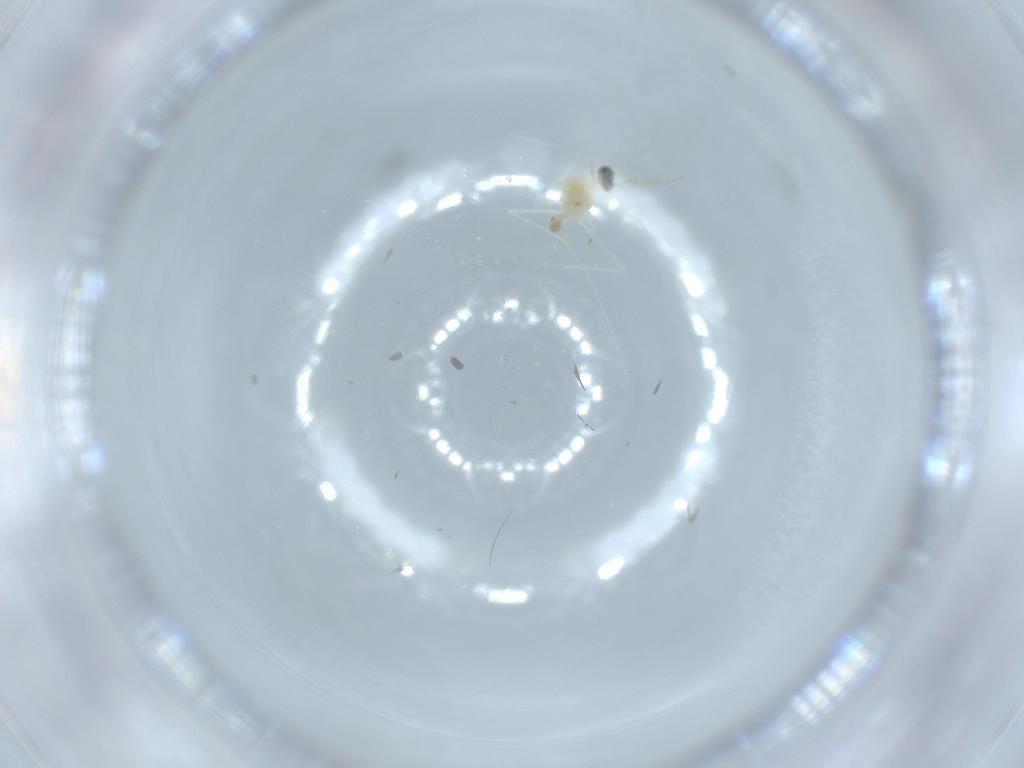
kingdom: Animalia
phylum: Arthropoda
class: Insecta
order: Diptera
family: Cecidomyiidae
